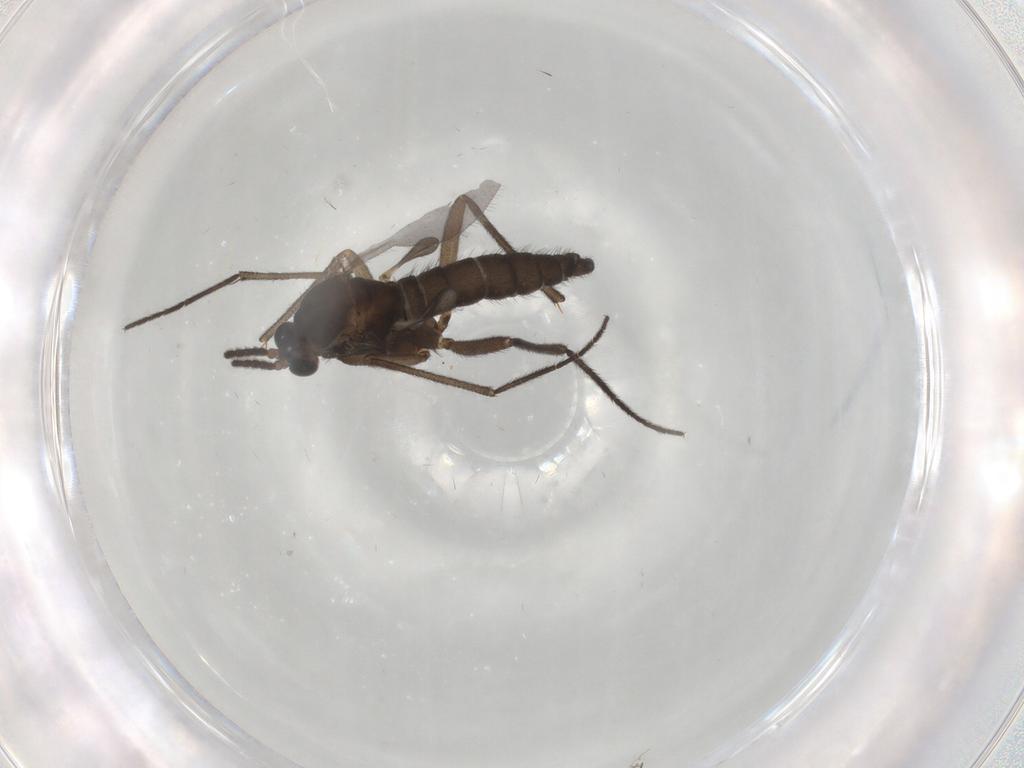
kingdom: Animalia
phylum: Arthropoda
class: Insecta
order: Diptera
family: Sciaridae
